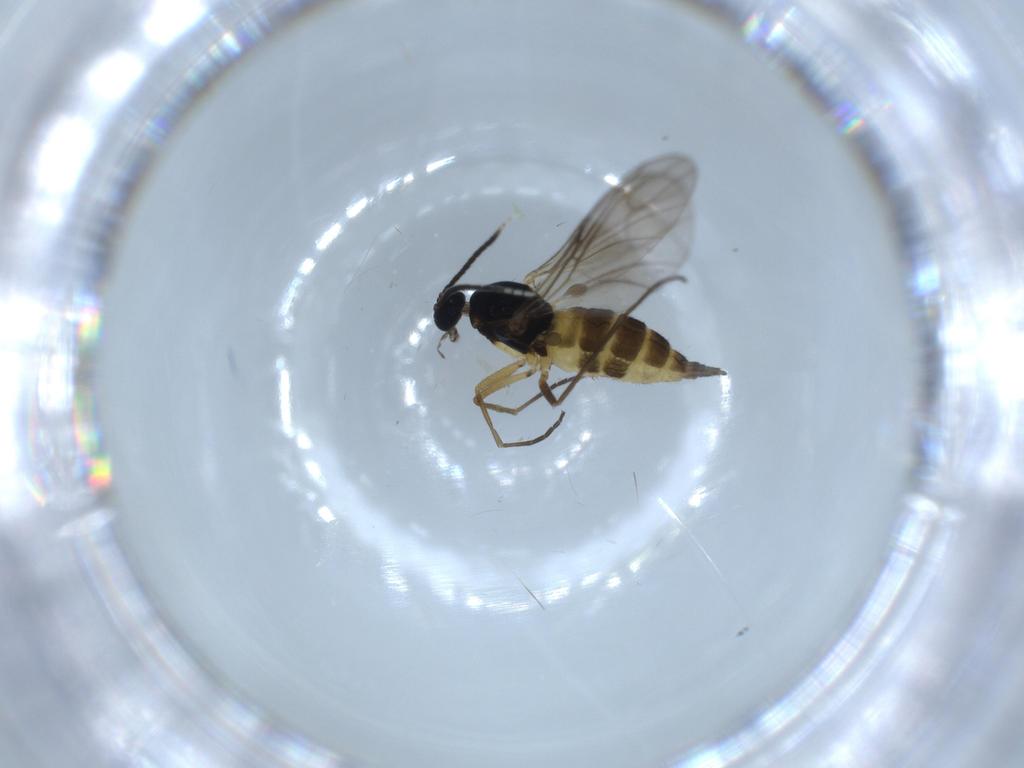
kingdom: Animalia
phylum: Arthropoda
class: Insecta
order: Diptera
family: Sciaridae
